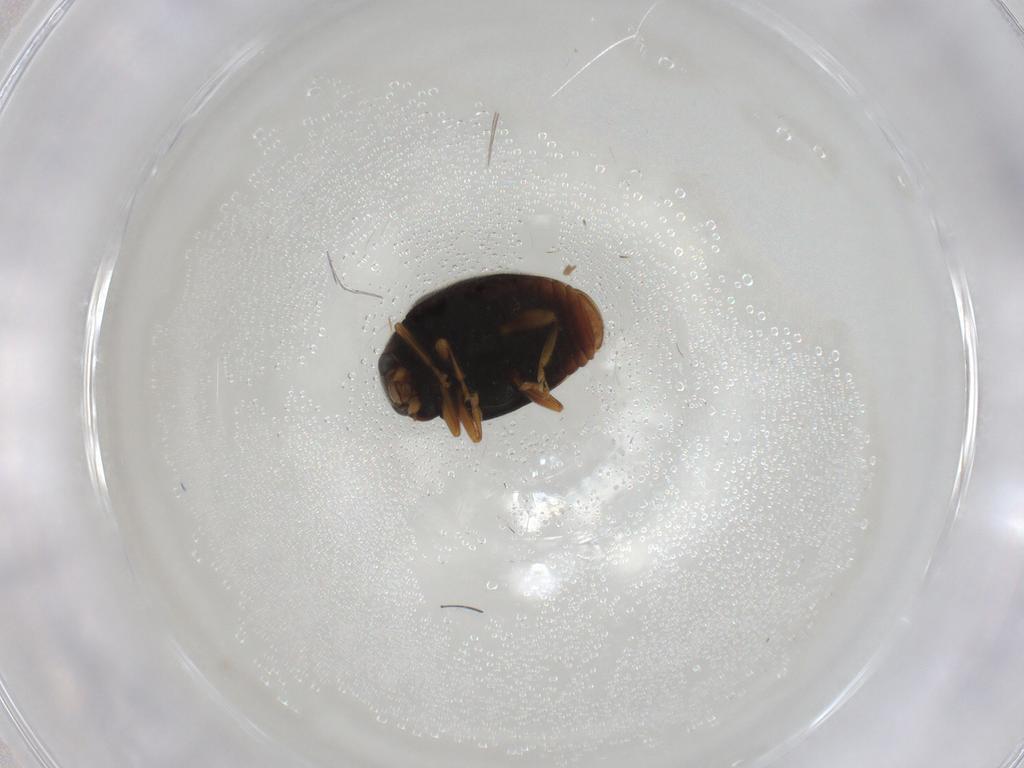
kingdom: Animalia
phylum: Arthropoda
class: Insecta
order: Coleoptera
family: Coccinellidae
